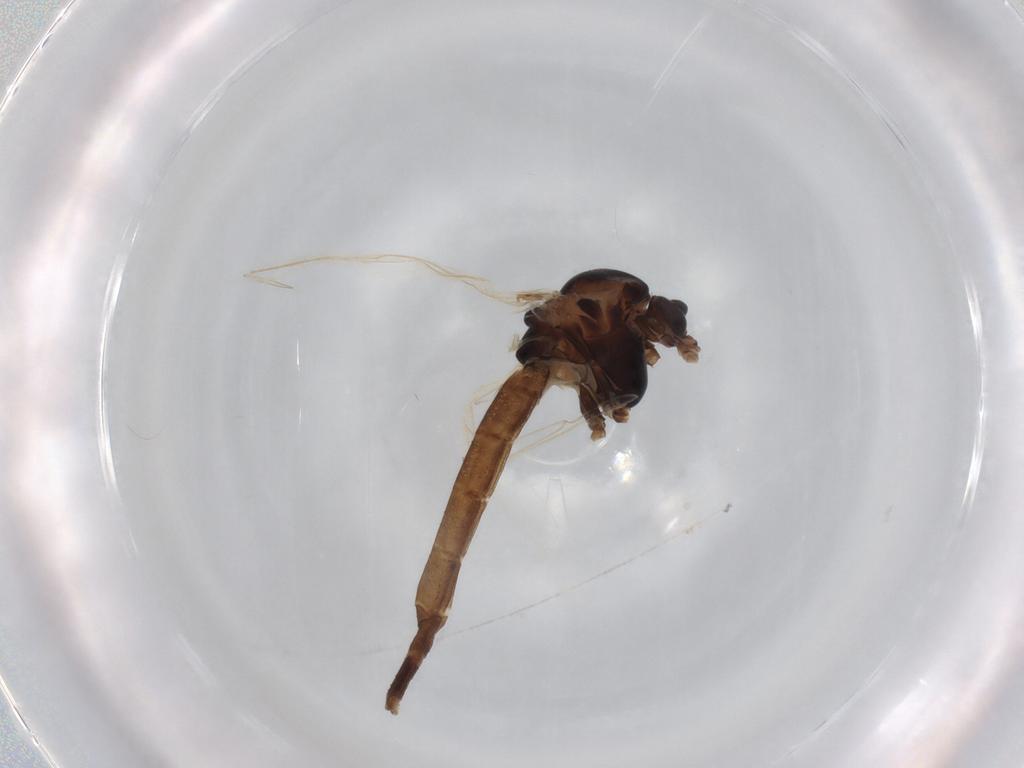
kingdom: Animalia
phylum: Arthropoda
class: Insecta
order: Diptera
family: Chironomidae
